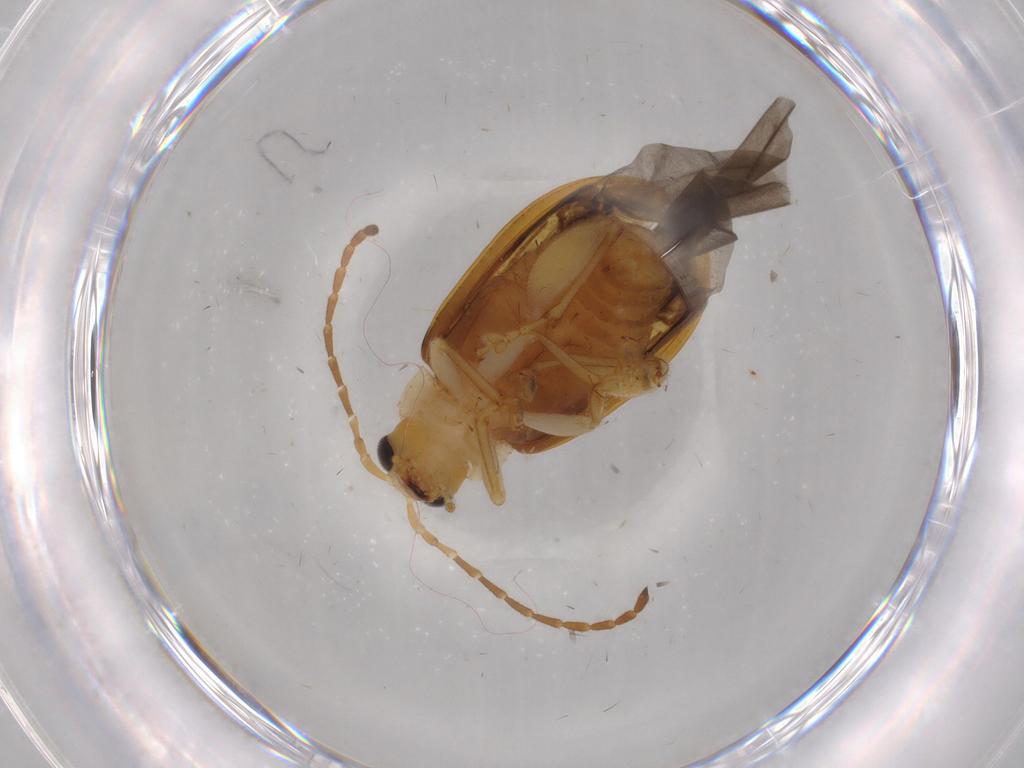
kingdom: Animalia
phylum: Arthropoda
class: Insecta
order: Coleoptera
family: Chrysomelidae
